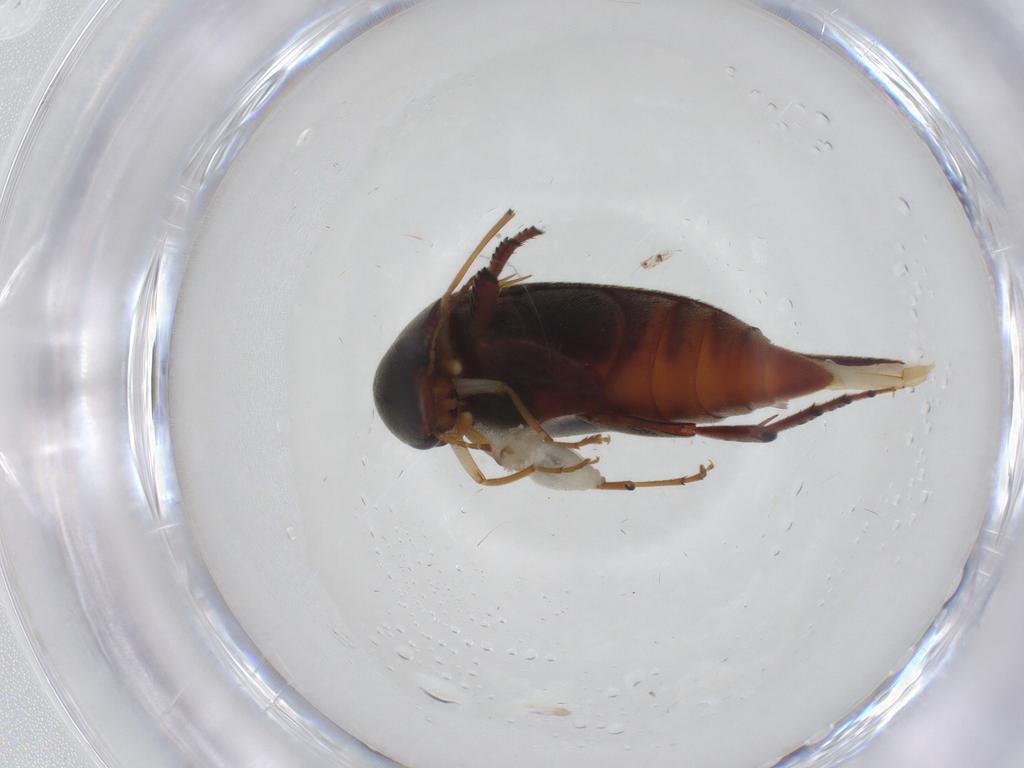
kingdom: Animalia
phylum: Arthropoda
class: Insecta
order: Diptera
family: Cecidomyiidae
